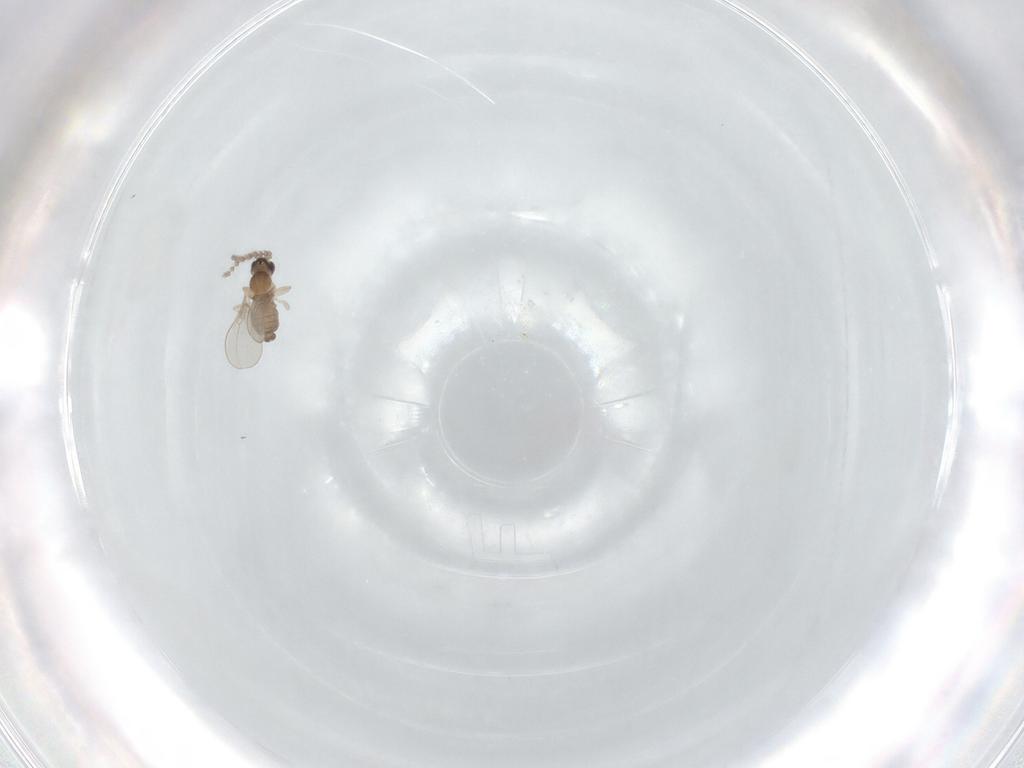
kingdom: Animalia
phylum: Arthropoda
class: Insecta
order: Diptera
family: Cecidomyiidae
